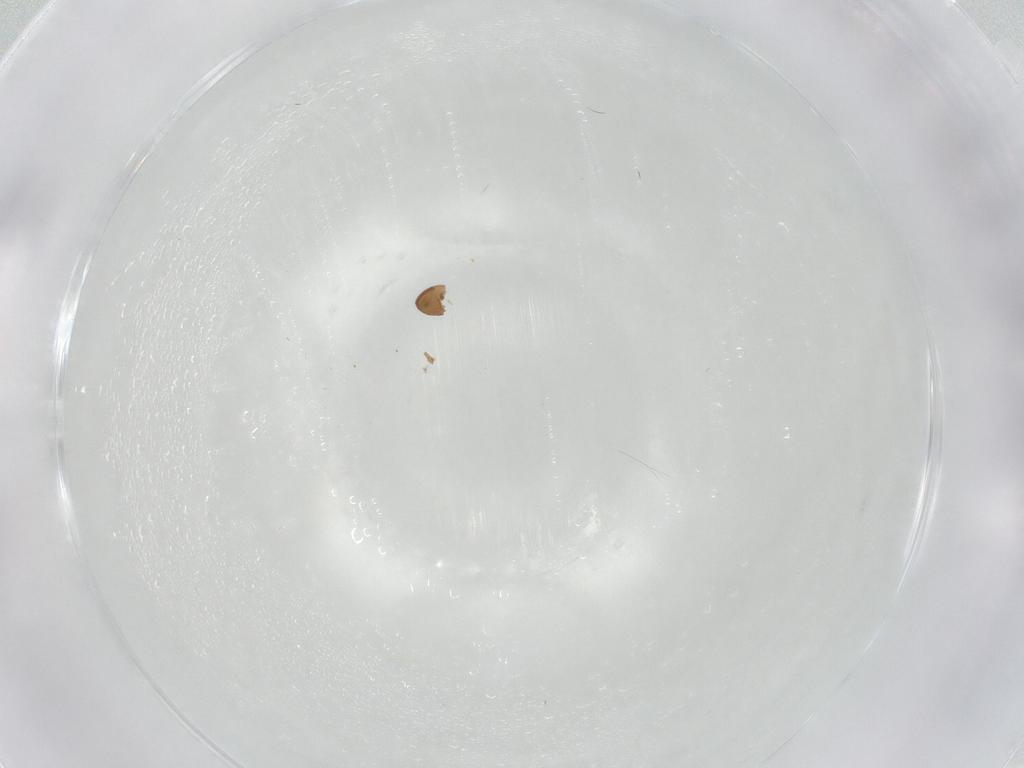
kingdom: Animalia
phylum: Arthropoda
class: Arachnida
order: Sarcoptiformes
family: Oribatulidae
